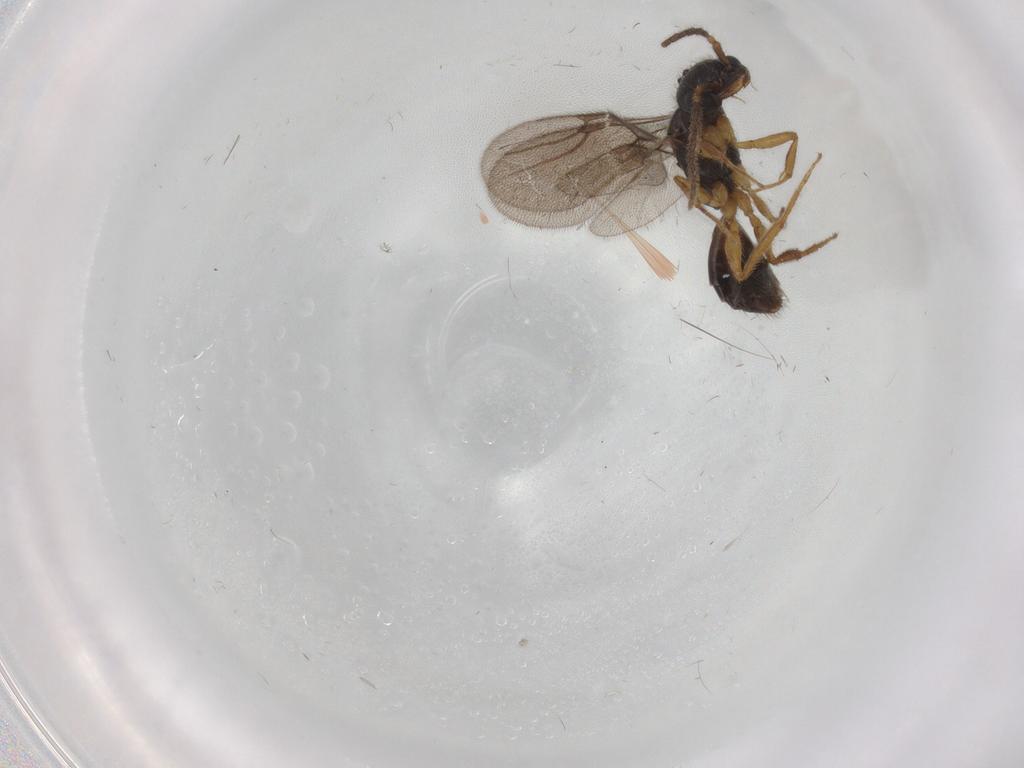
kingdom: Animalia
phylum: Arthropoda
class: Insecta
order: Hymenoptera
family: Bethylidae
